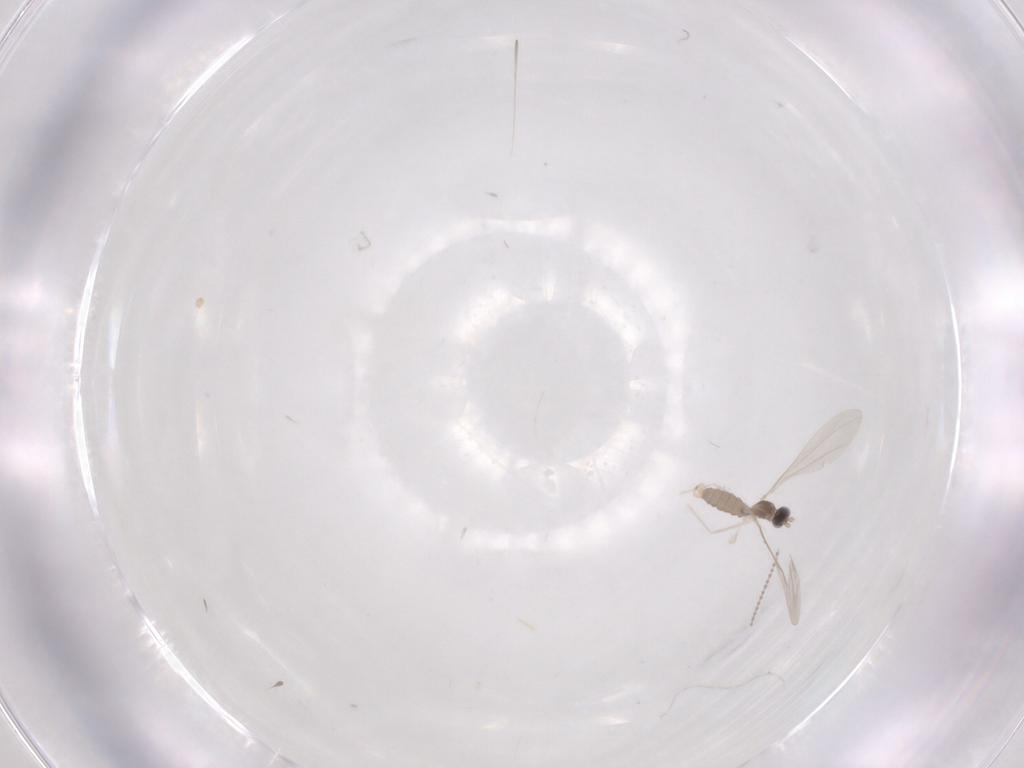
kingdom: Animalia
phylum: Arthropoda
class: Insecta
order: Diptera
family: Cecidomyiidae
